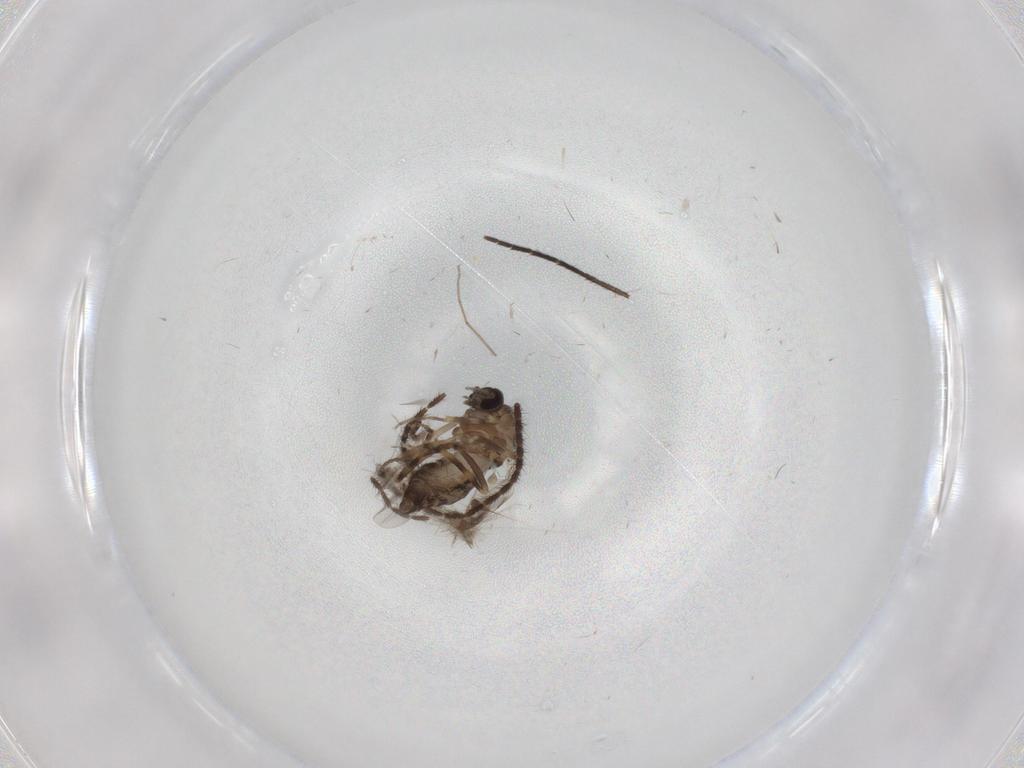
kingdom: Animalia
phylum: Arthropoda
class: Insecta
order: Diptera
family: Ceratopogonidae
